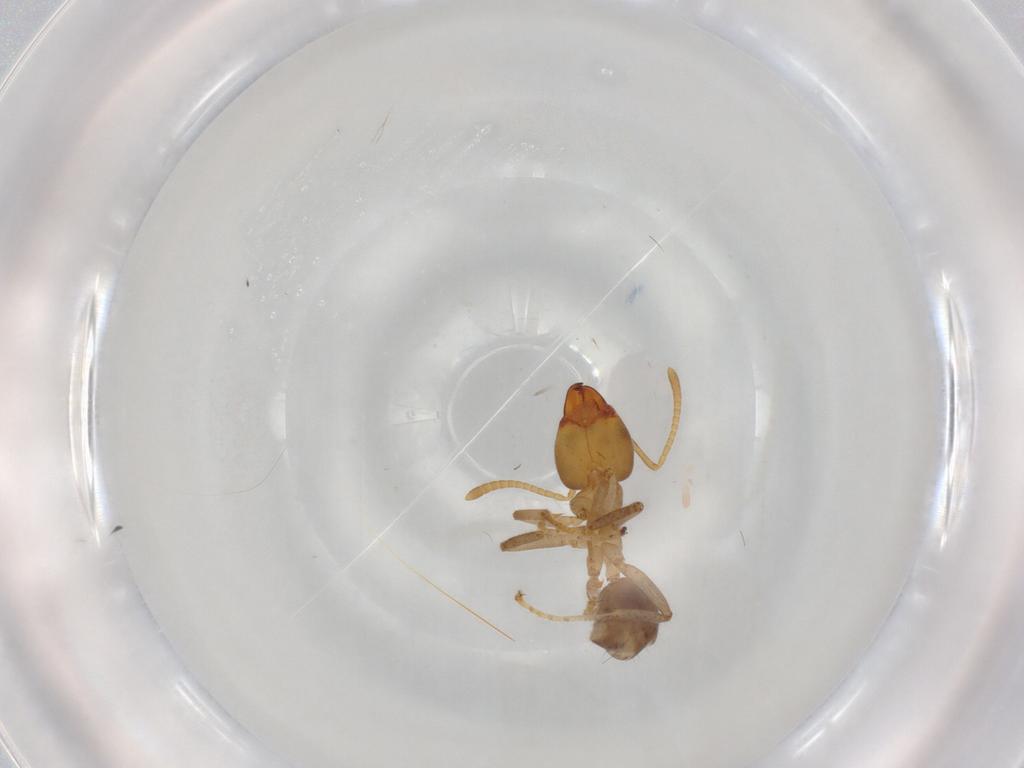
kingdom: Animalia
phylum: Arthropoda
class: Insecta
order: Hymenoptera
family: Formicidae
